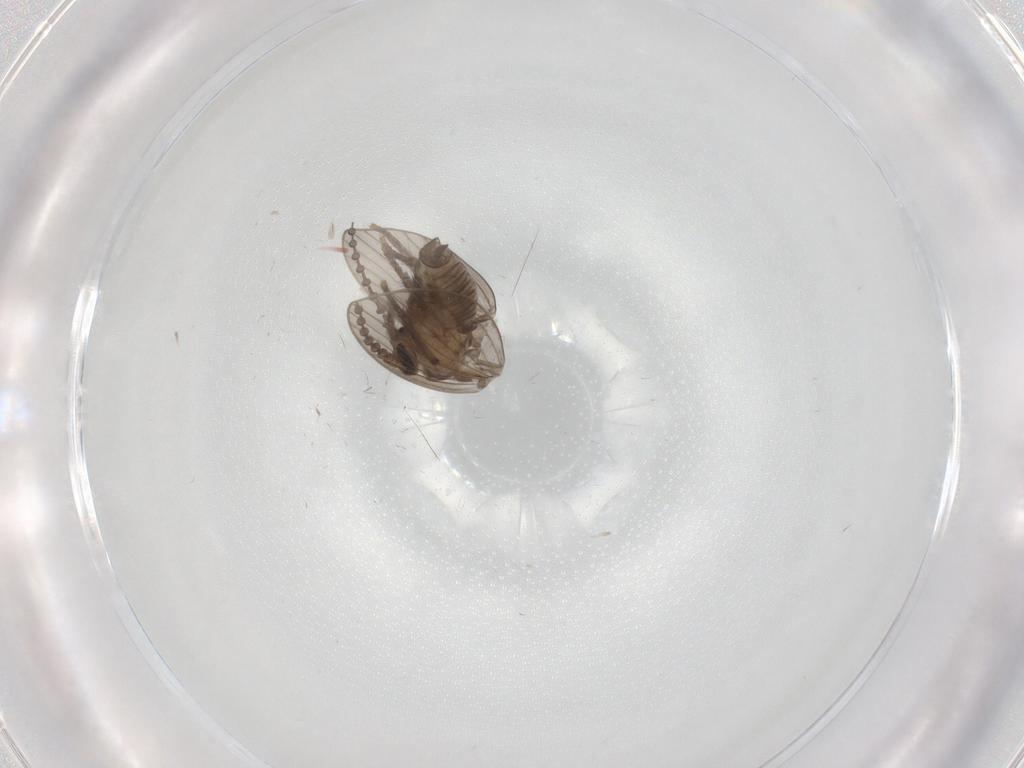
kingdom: Animalia
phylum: Arthropoda
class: Insecta
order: Diptera
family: Psychodidae
